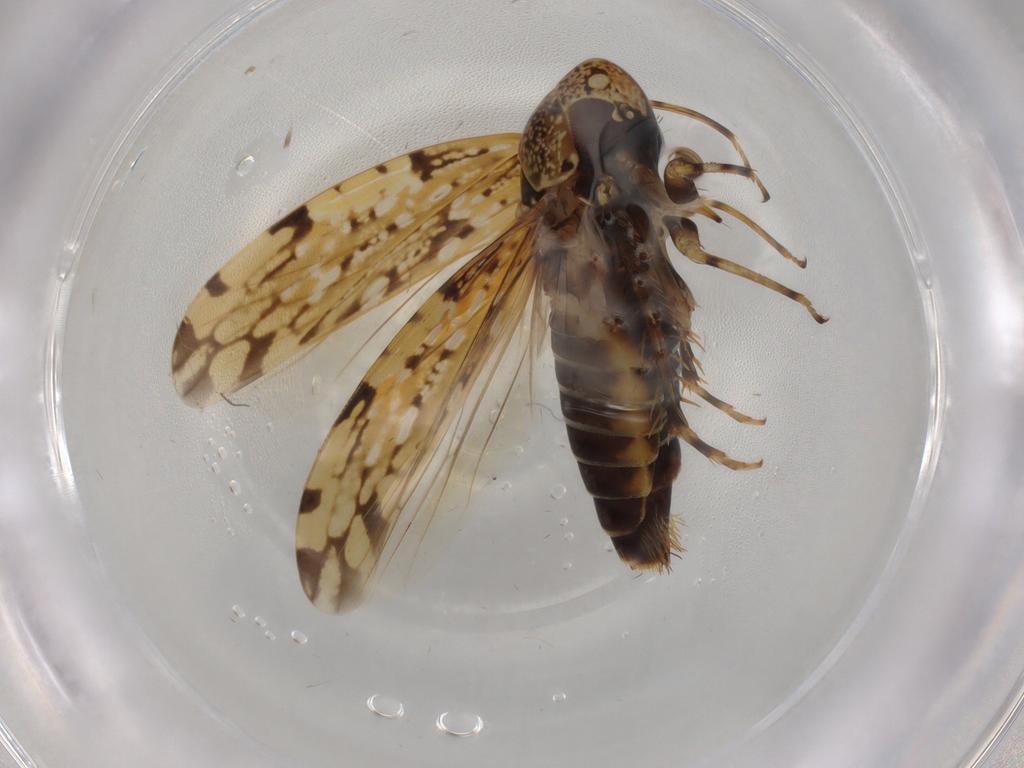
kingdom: Animalia
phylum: Arthropoda
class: Insecta
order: Hemiptera
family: Cicadellidae
